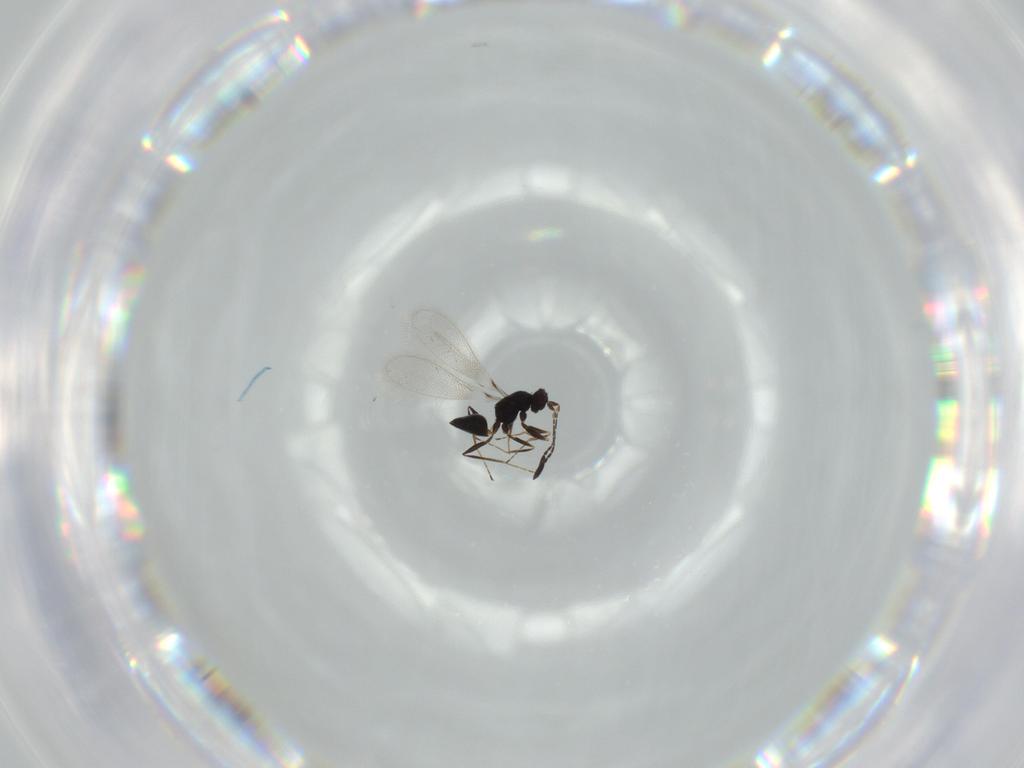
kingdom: Animalia
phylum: Arthropoda
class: Insecta
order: Hymenoptera
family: Mymaridae
